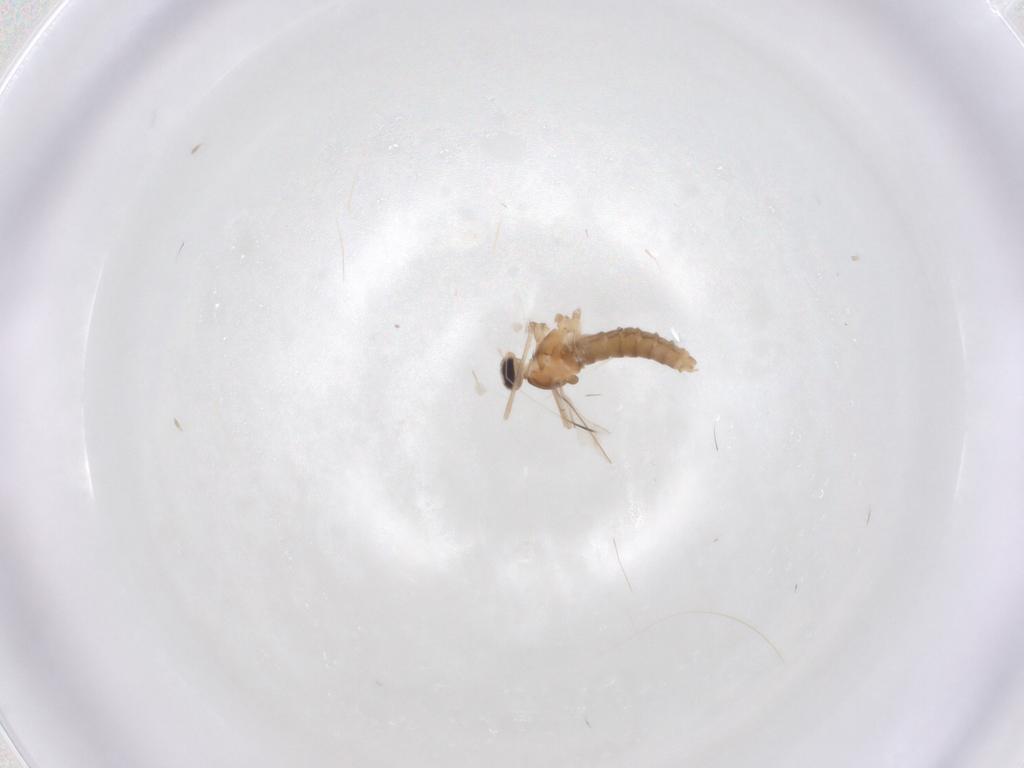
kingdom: Animalia
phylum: Arthropoda
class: Insecta
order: Diptera
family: Cecidomyiidae
